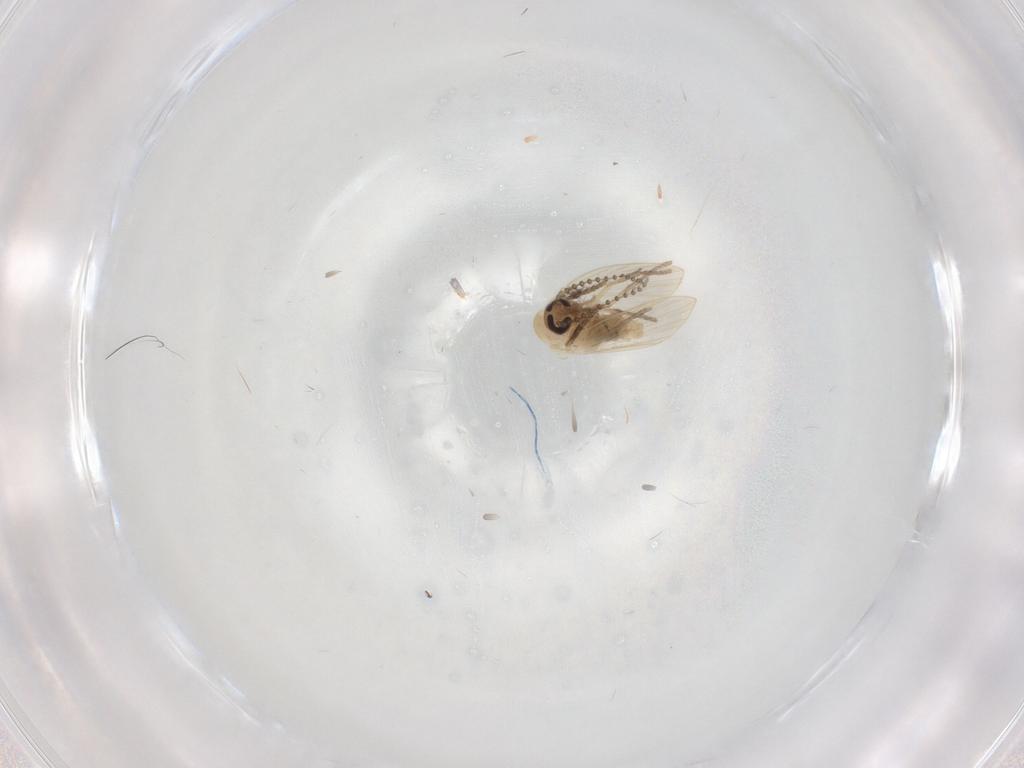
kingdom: Animalia
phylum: Arthropoda
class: Insecta
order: Diptera
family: Psychodidae
